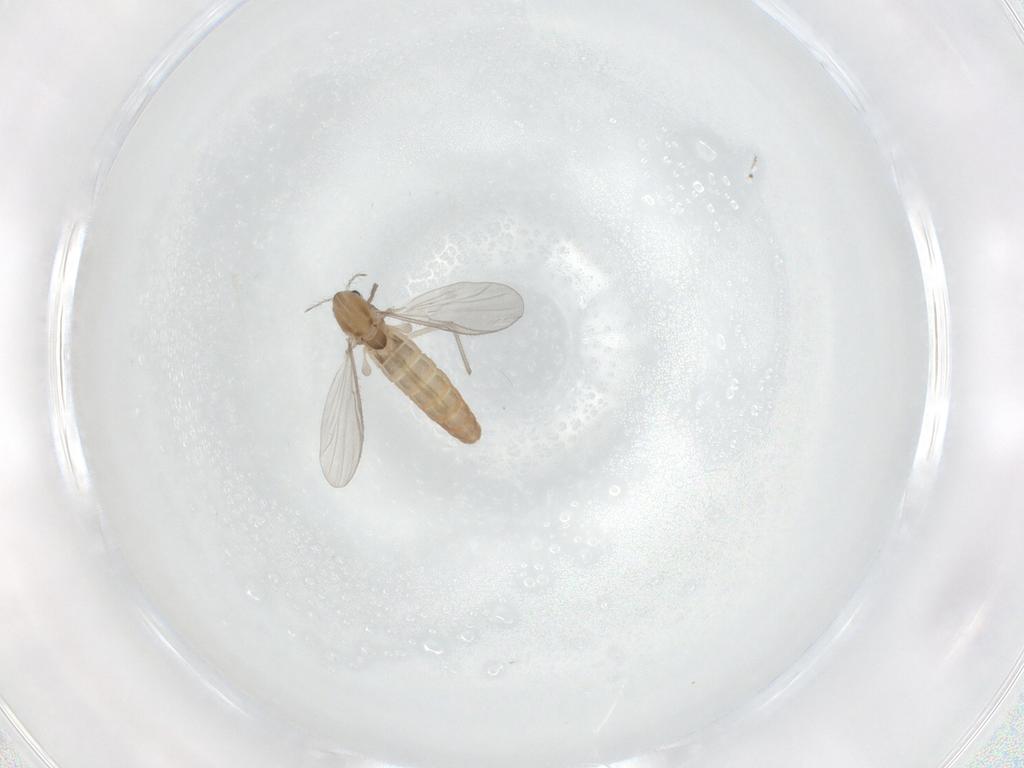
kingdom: Animalia
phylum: Arthropoda
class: Insecta
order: Diptera
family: Chironomidae
